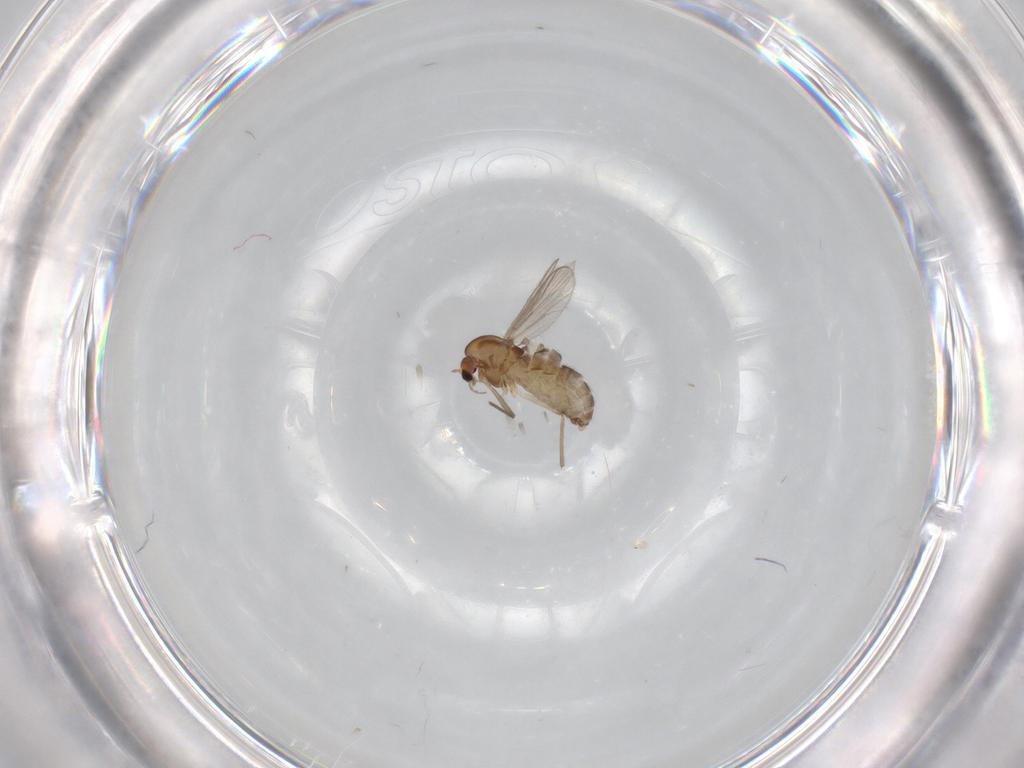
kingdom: Animalia
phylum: Arthropoda
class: Insecta
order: Diptera
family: Chironomidae
